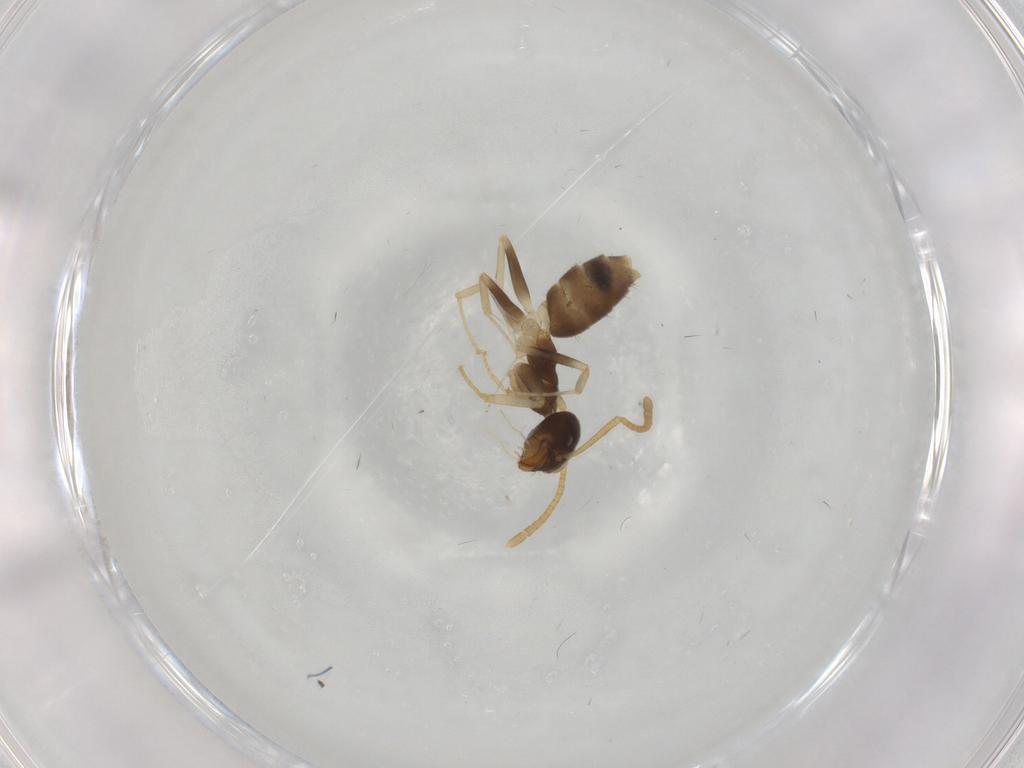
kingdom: Animalia
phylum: Arthropoda
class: Insecta
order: Hymenoptera
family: Formicidae
